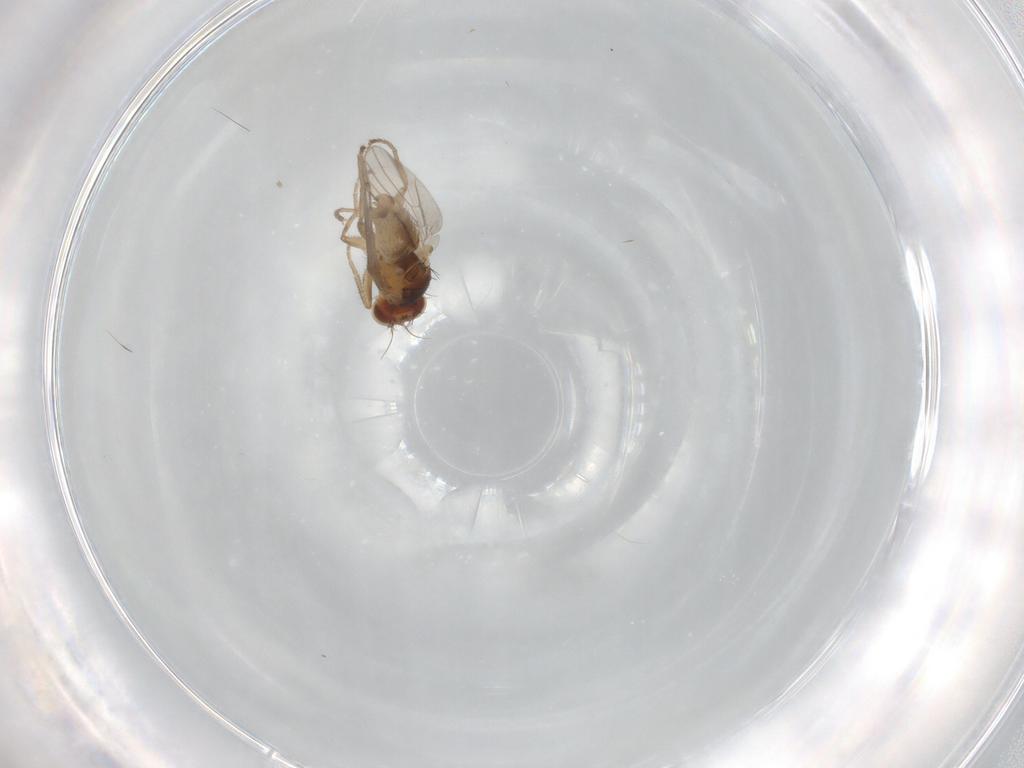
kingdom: Animalia
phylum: Arthropoda
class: Insecta
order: Diptera
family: Agromyzidae
